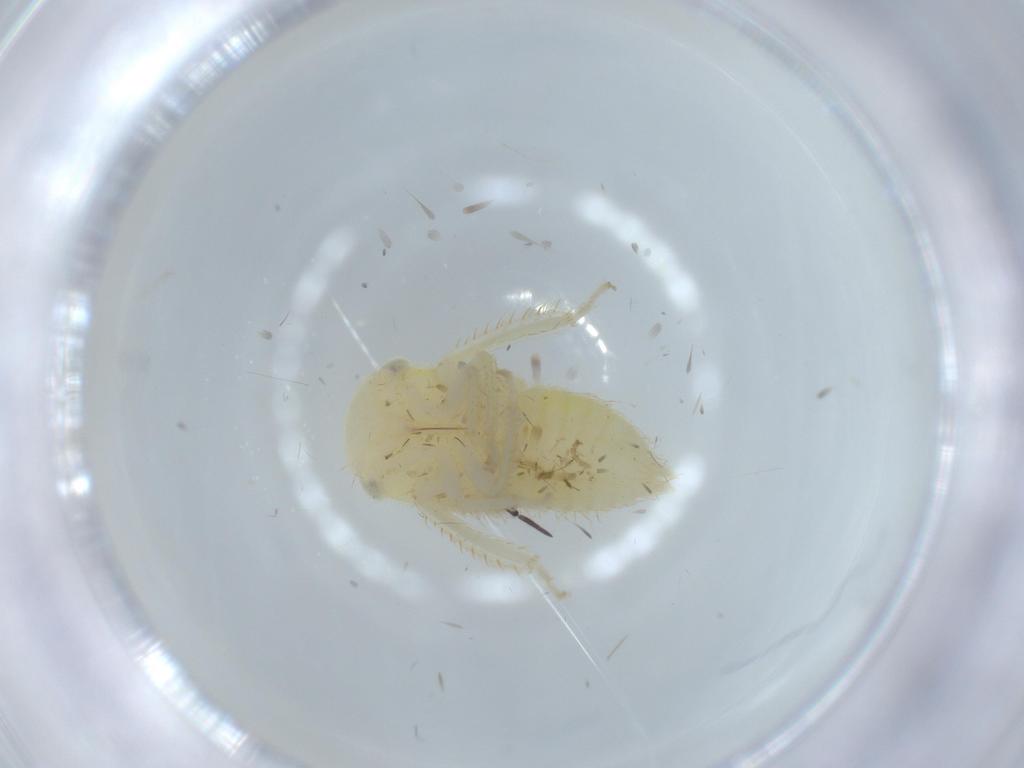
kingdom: Animalia
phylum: Arthropoda
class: Insecta
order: Hemiptera
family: Cicadellidae
